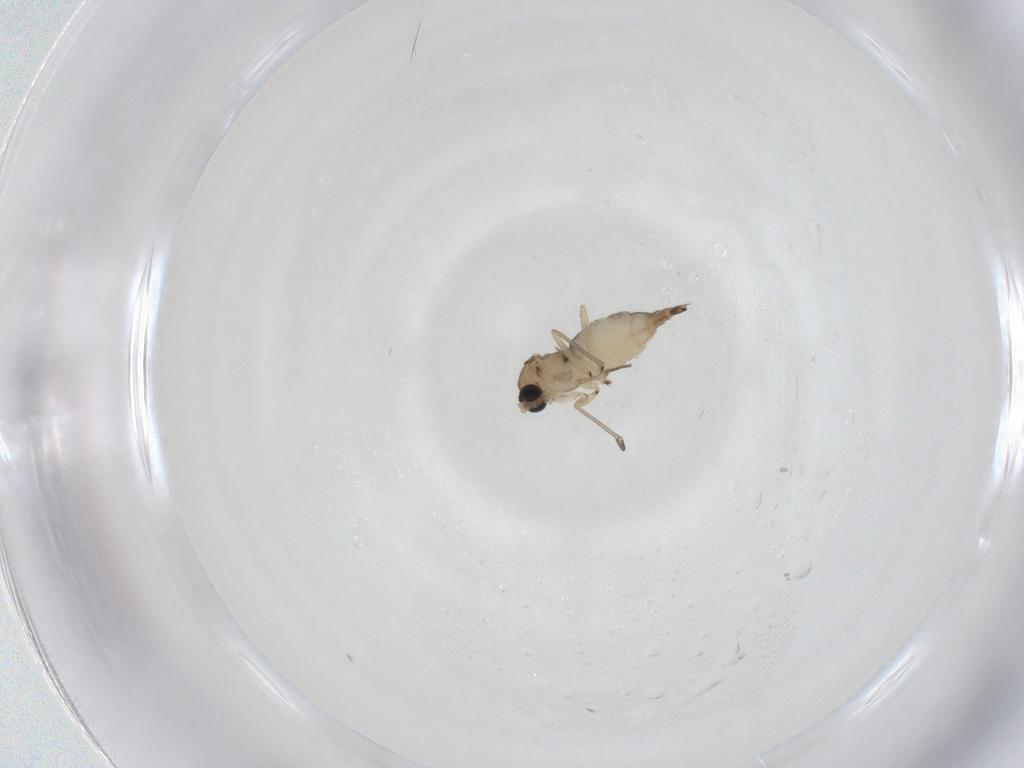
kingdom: Animalia
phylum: Arthropoda
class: Insecta
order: Diptera
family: Sciaridae
